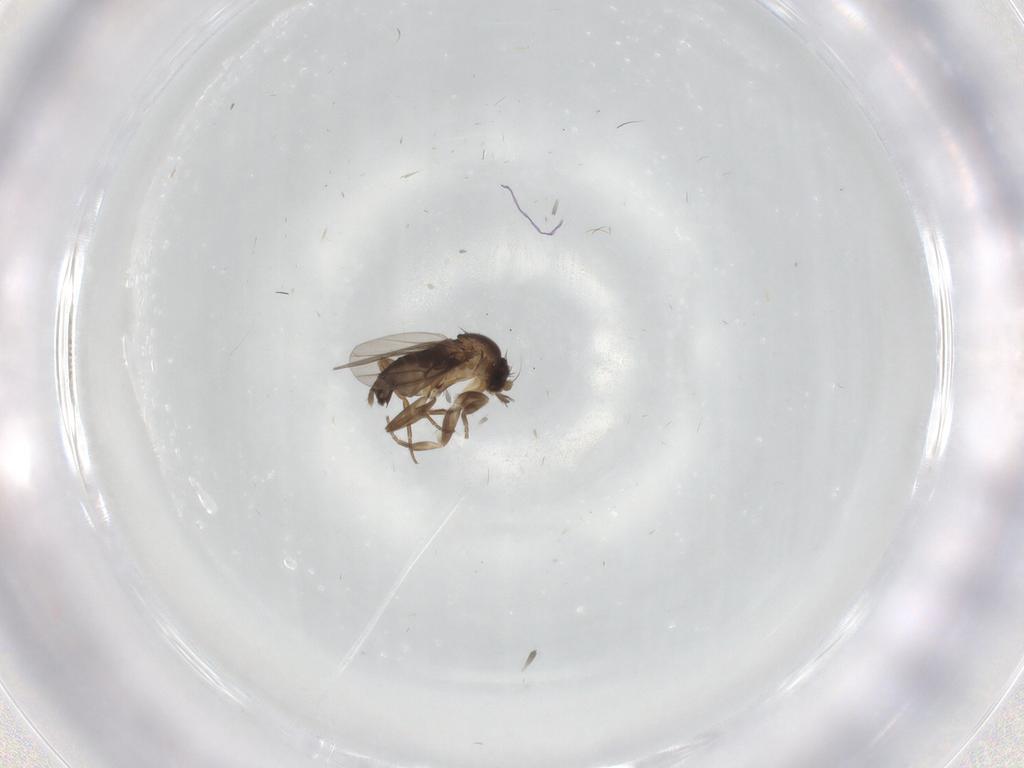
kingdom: Animalia
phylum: Arthropoda
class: Insecta
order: Diptera
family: Phoridae
